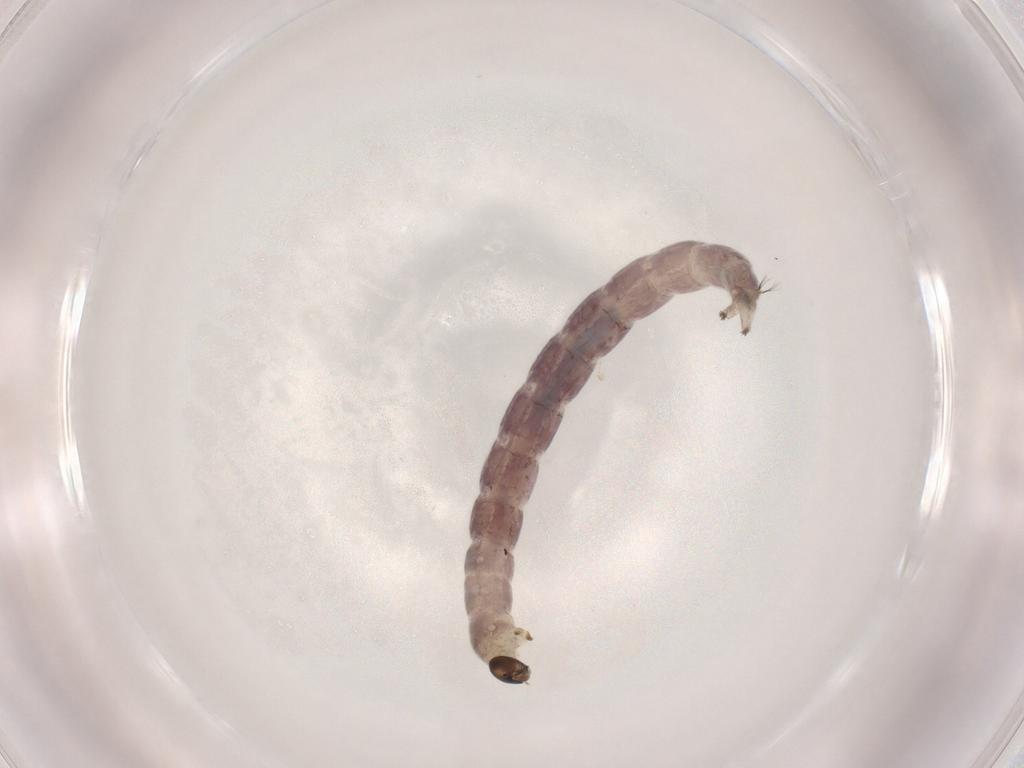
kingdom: Animalia
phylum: Arthropoda
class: Insecta
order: Diptera
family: Chironomidae
